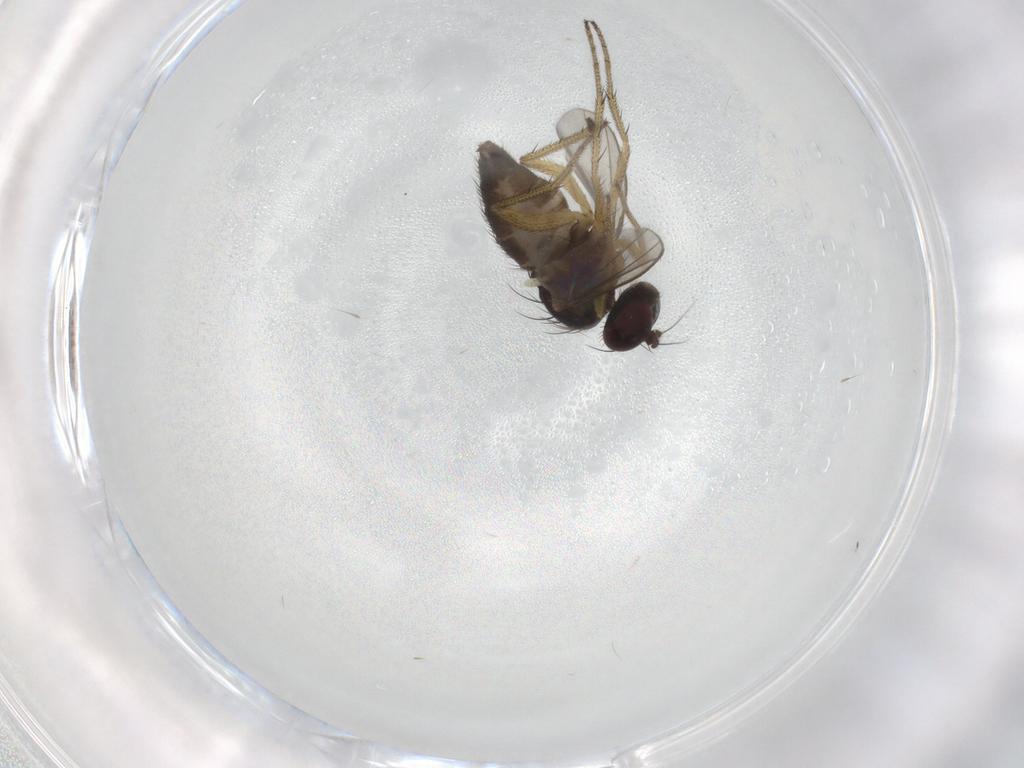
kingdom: Animalia
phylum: Arthropoda
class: Insecta
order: Diptera
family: Dolichopodidae
